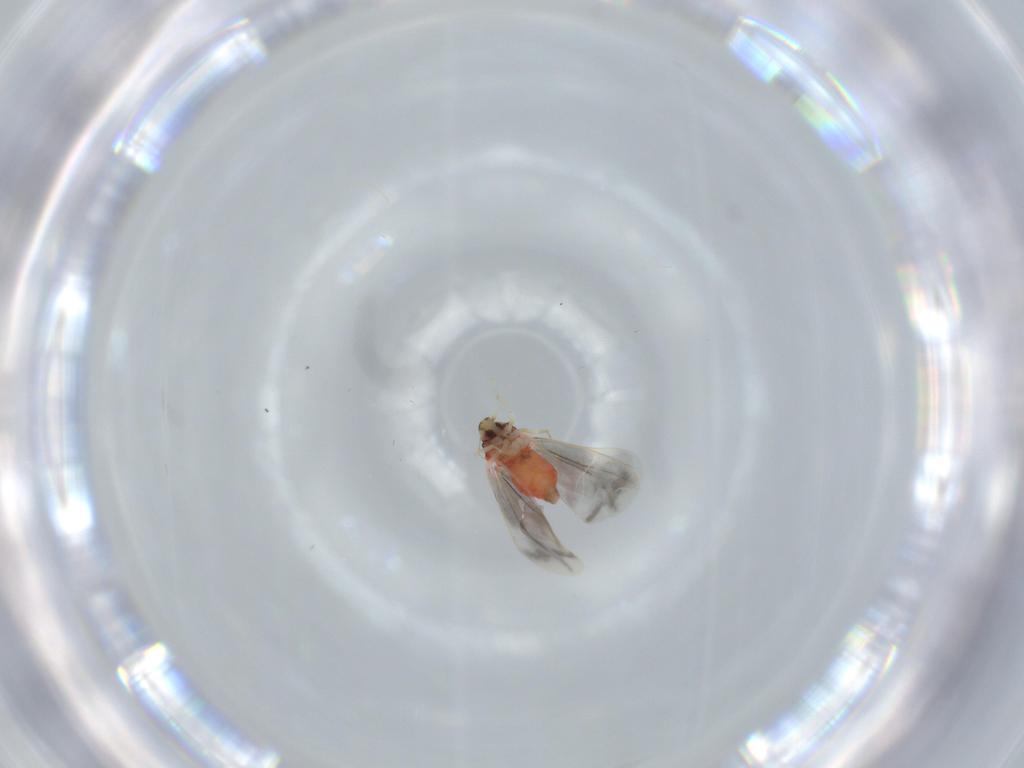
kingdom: Animalia
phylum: Arthropoda
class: Insecta
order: Hemiptera
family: Aleyrodidae
